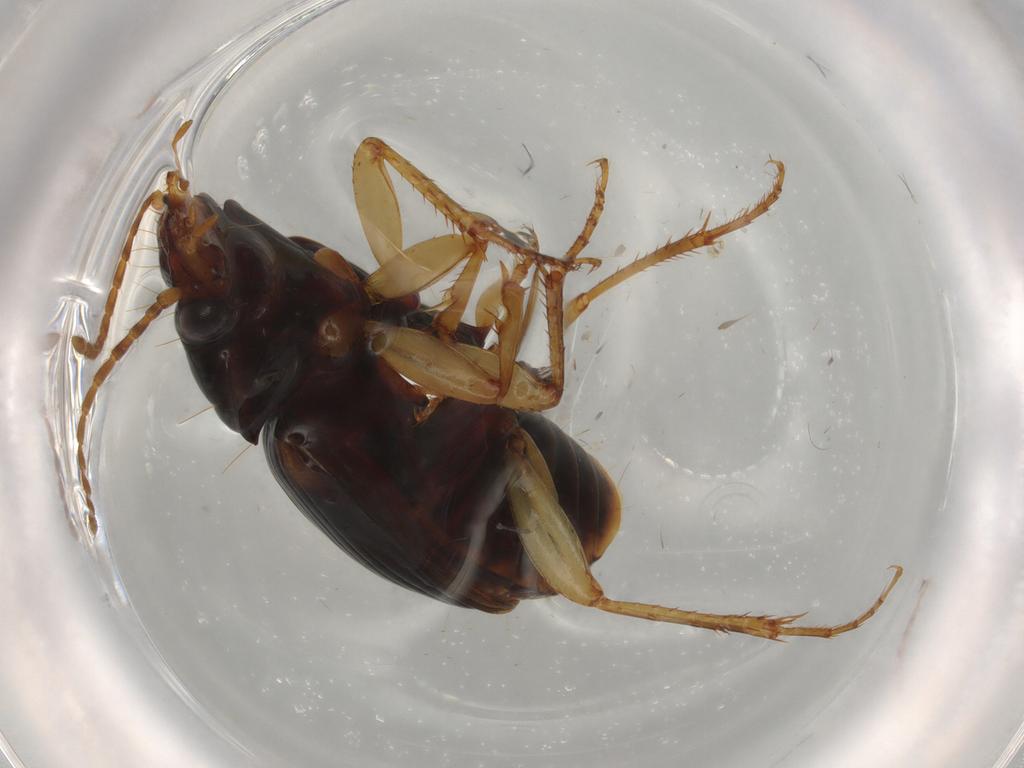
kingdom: Animalia
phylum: Arthropoda
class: Insecta
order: Coleoptera
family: Carabidae
